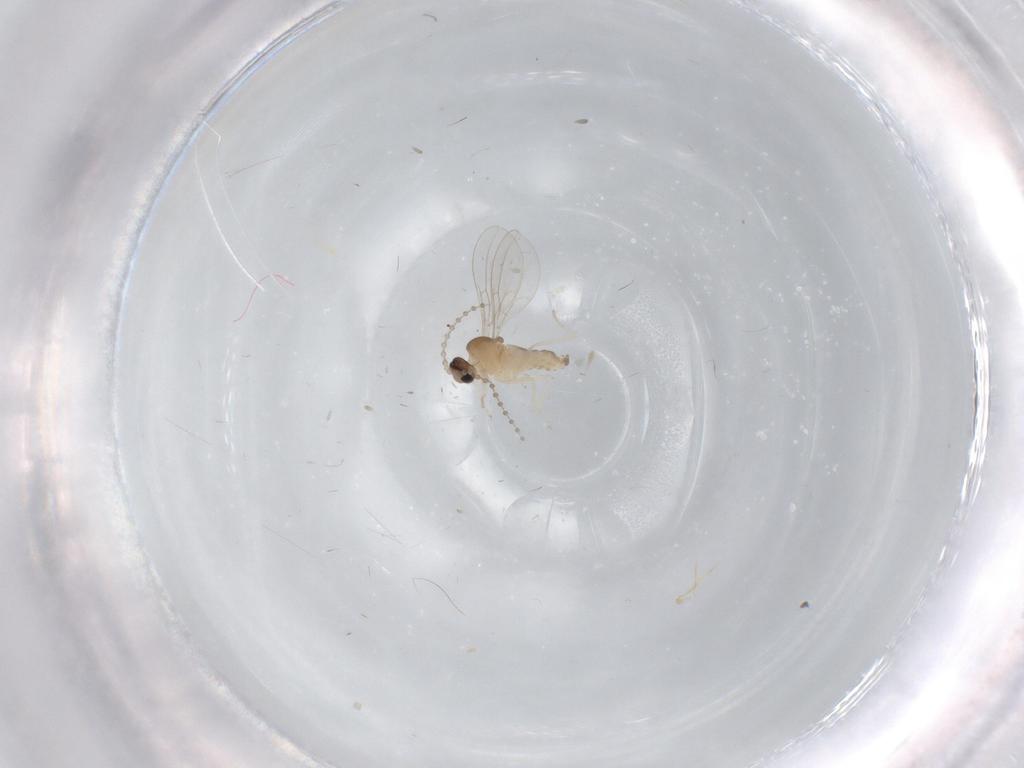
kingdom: Animalia
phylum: Arthropoda
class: Insecta
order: Diptera
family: Cecidomyiidae
